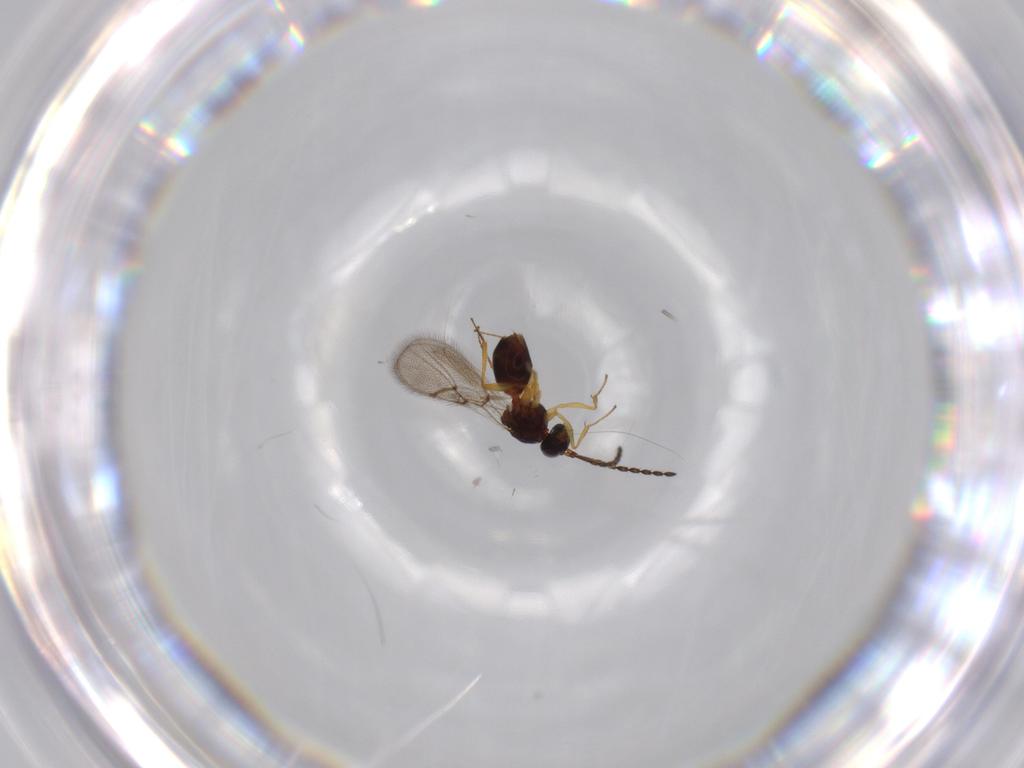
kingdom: Animalia
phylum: Arthropoda
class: Insecta
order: Hymenoptera
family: Figitidae
